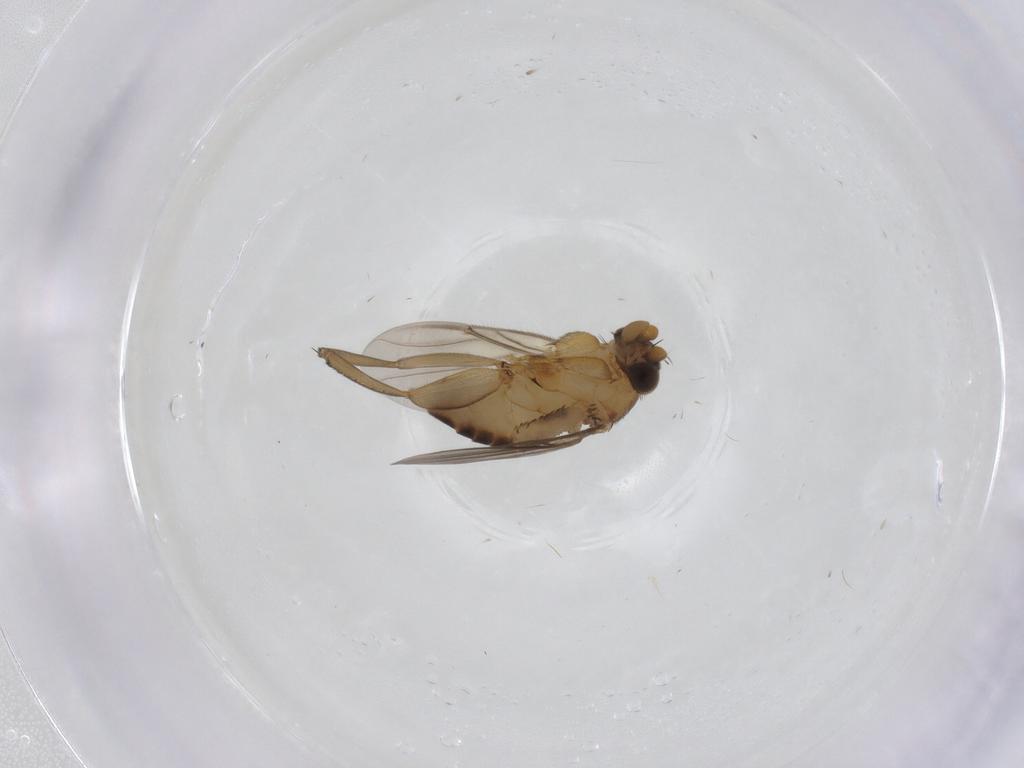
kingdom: Animalia
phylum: Arthropoda
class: Insecta
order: Diptera
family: Phoridae
